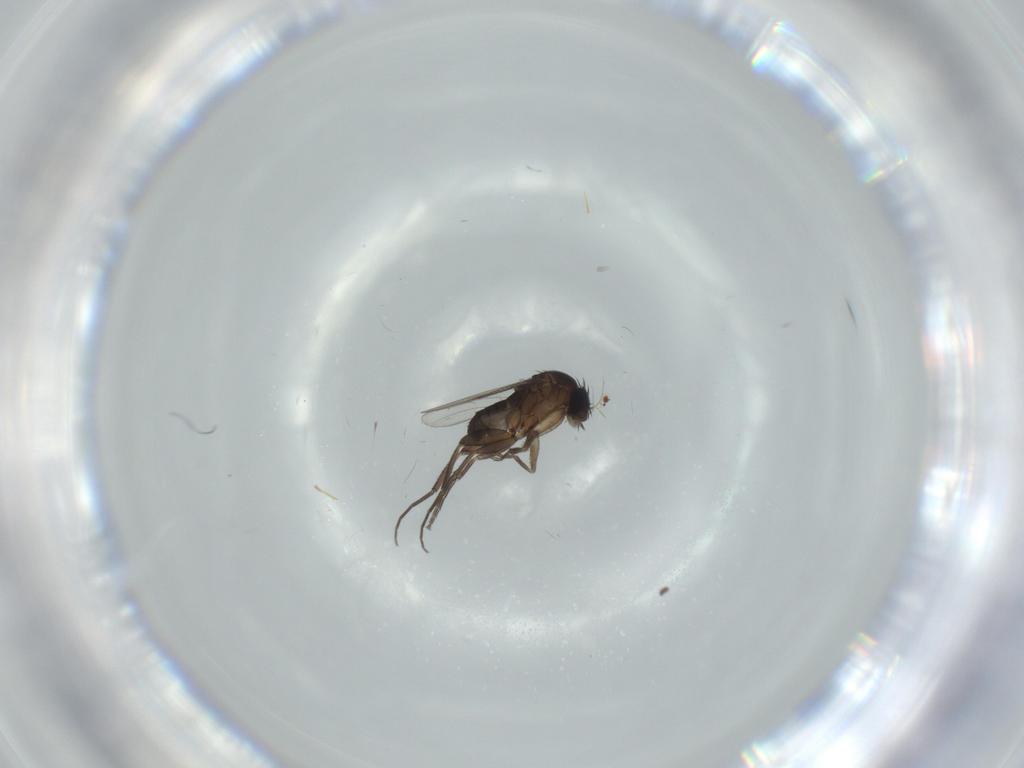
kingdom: Animalia
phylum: Arthropoda
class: Insecta
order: Diptera
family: Phoridae
